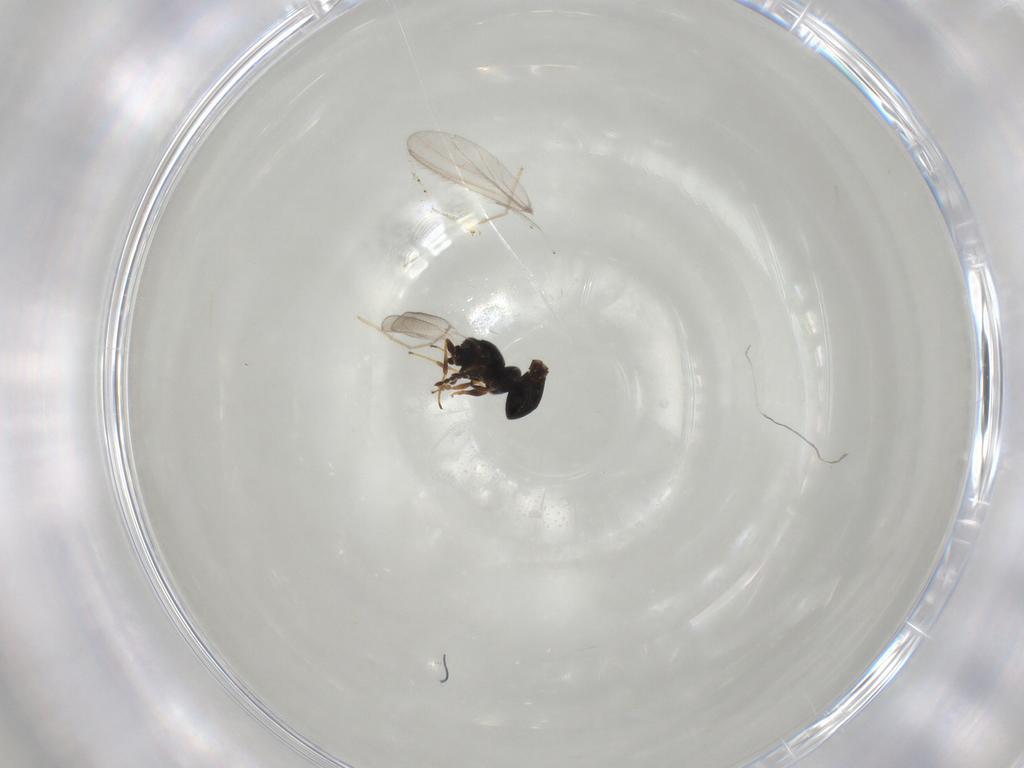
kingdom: Animalia
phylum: Arthropoda
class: Insecta
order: Hymenoptera
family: Platygastridae
